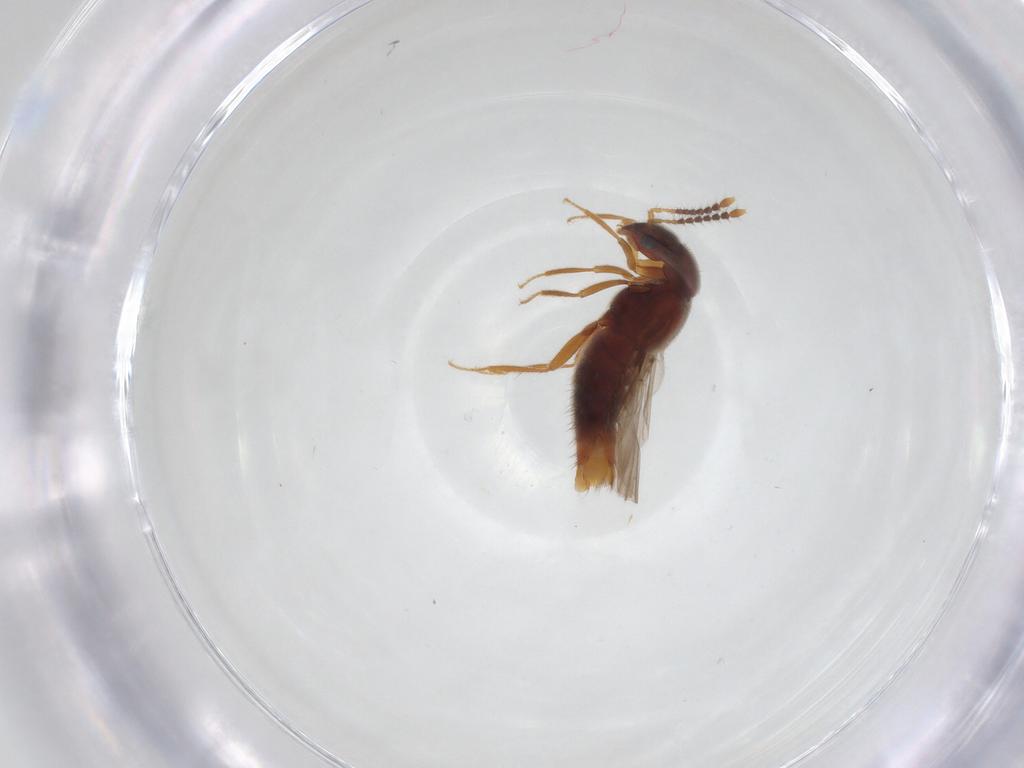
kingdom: Animalia
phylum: Arthropoda
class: Insecta
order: Coleoptera
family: Staphylinidae
